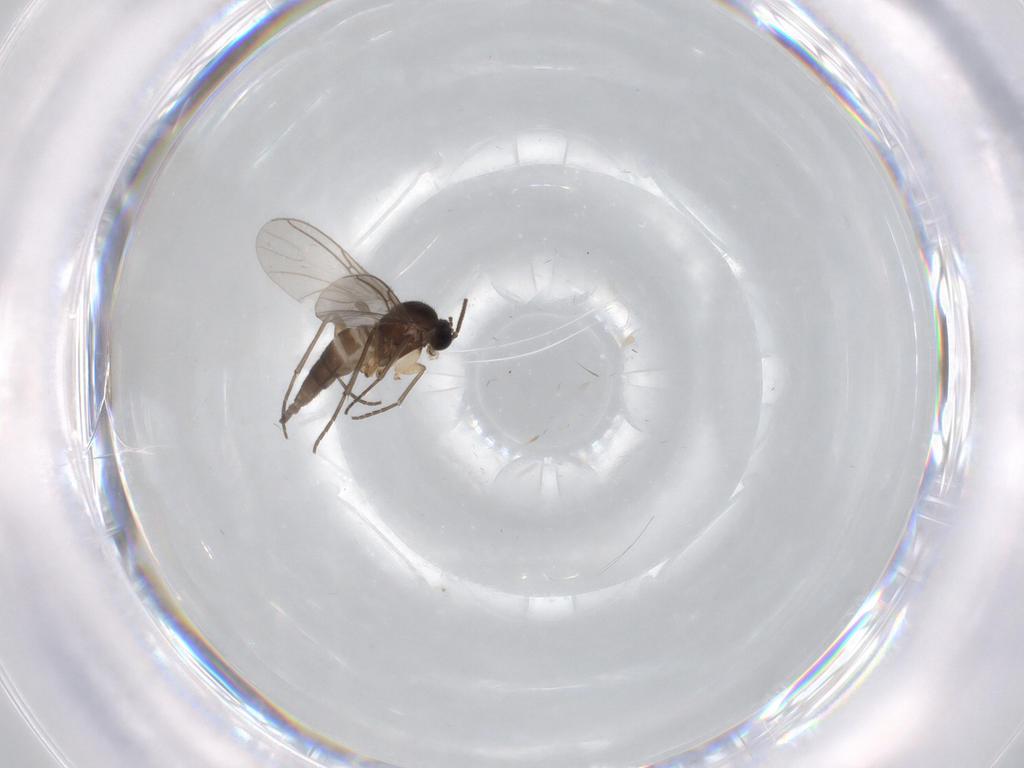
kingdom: Animalia
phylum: Arthropoda
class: Insecta
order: Diptera
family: Sciaridae
